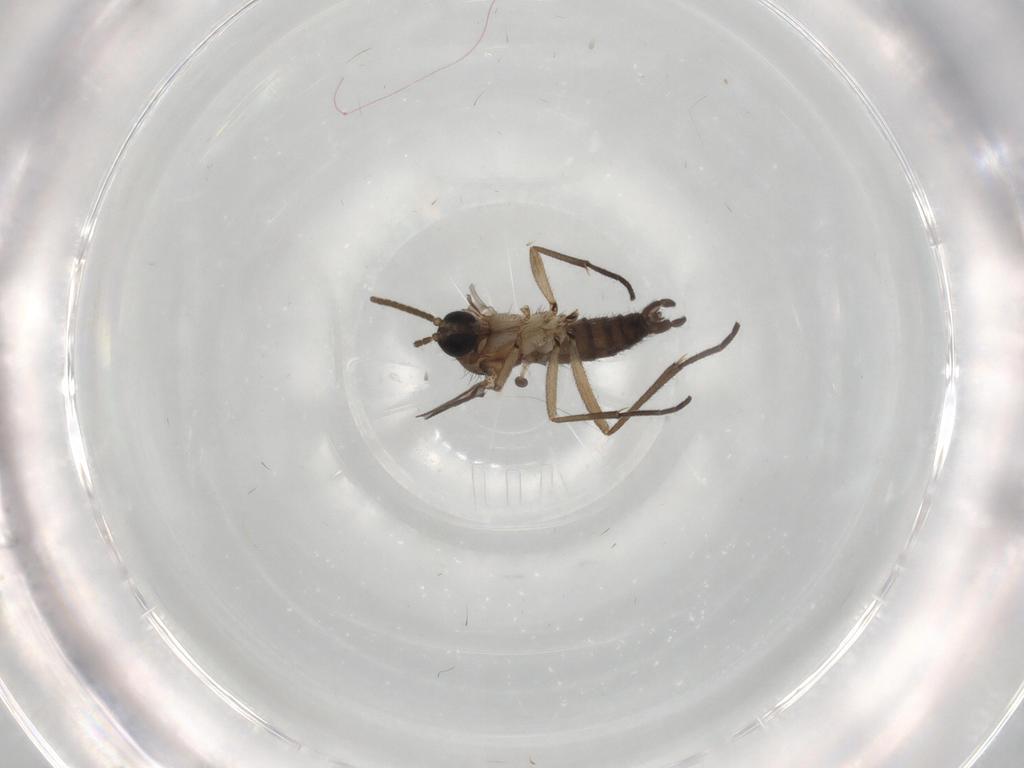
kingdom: Animalia
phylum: Arthropoda
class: Insecta
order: Diptera
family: Sciaridae
